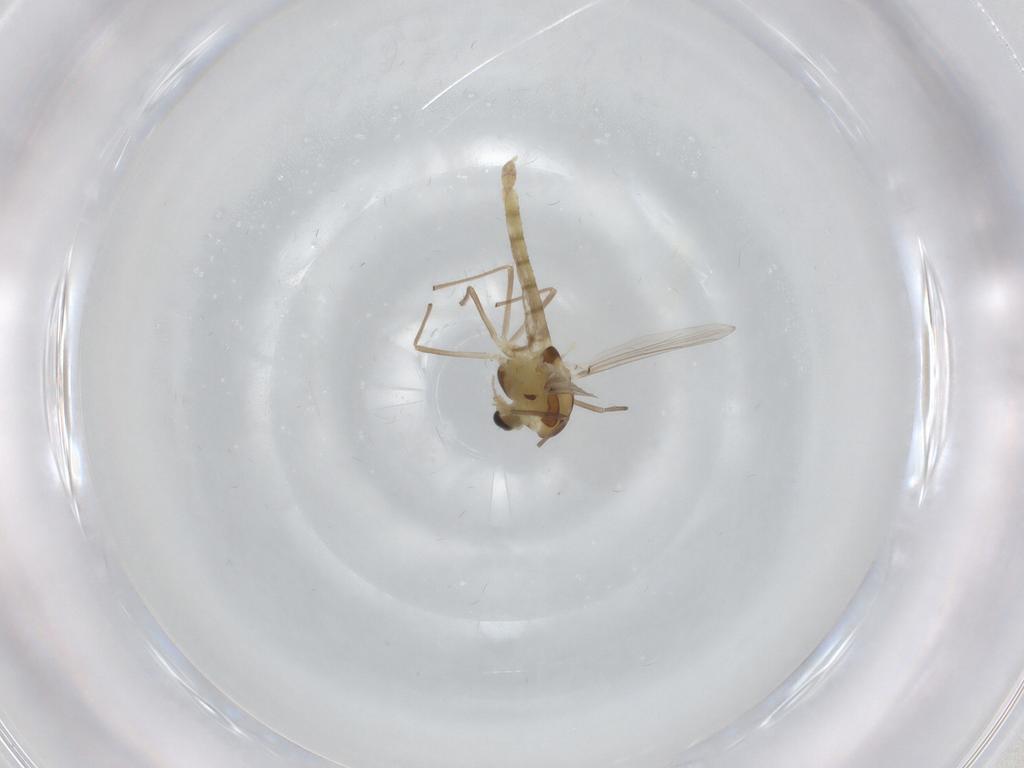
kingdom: Animalia
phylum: Arthropoda
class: Insecta
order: Diptera
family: Chironomidae
